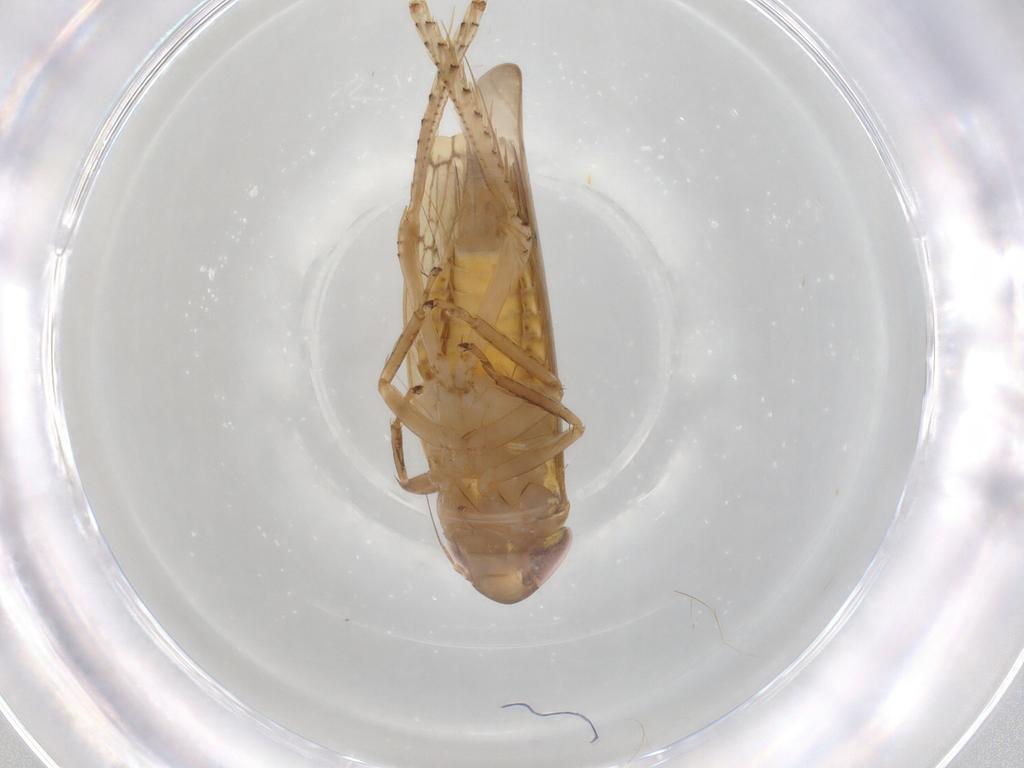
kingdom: Animalia
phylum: Arthropoda
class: Insecta
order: Hemiptera
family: Cicadellidae
